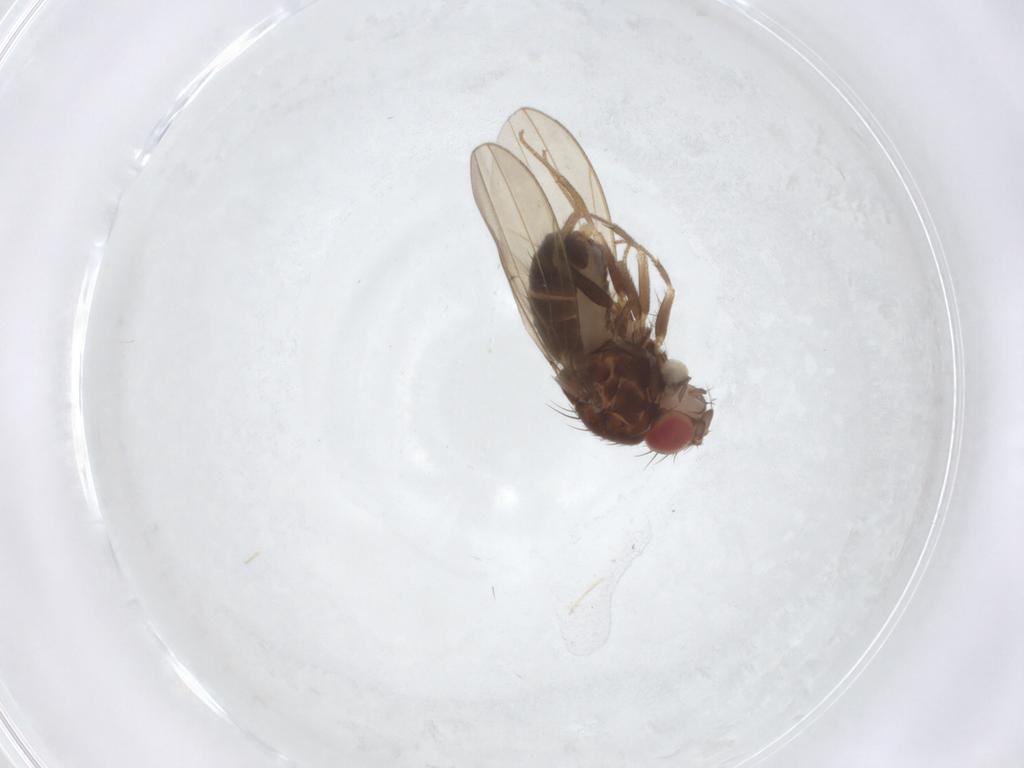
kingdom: Animalia
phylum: Arthropoda
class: Insecta
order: Diptera
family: Drosophilidae
